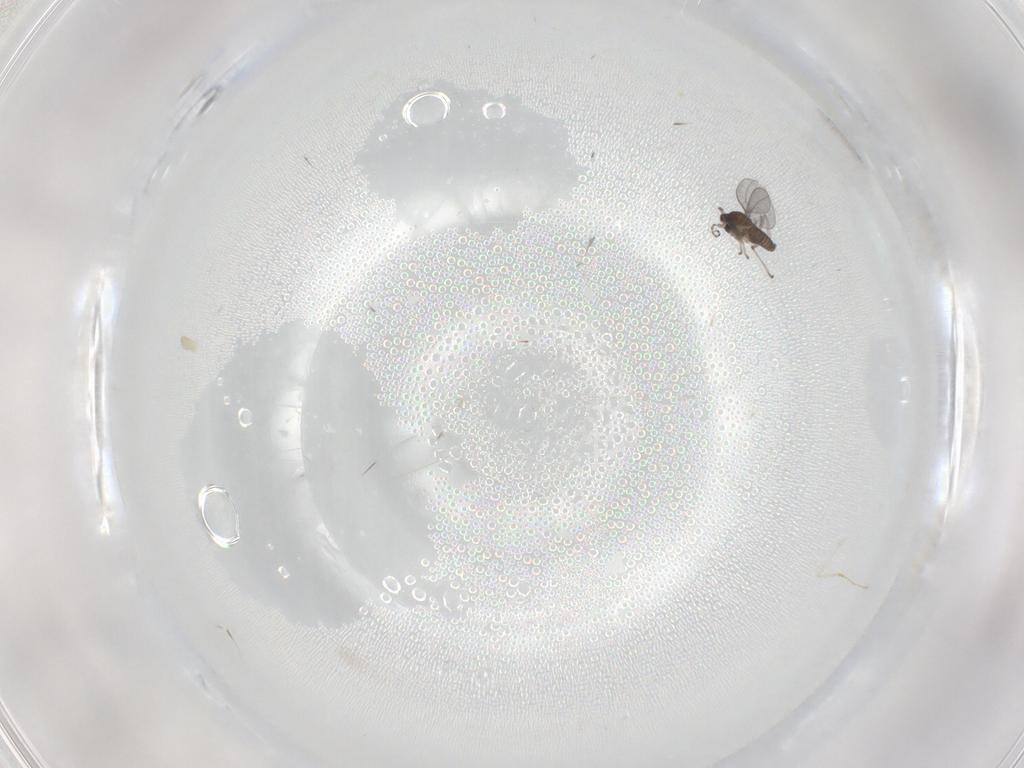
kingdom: Animalia
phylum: Arthropoda
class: Insecta
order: Diptera
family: Cecidomyiidae
